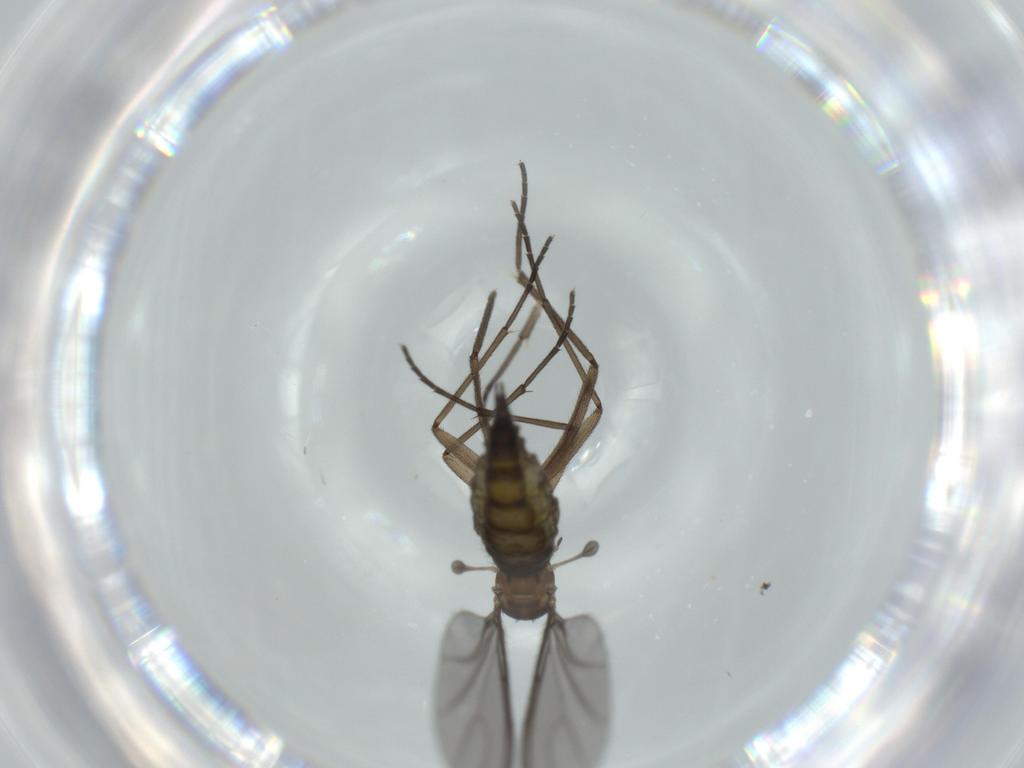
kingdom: Animalia
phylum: Arthropoda
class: Insecta
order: Diptera
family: Sciaridae
